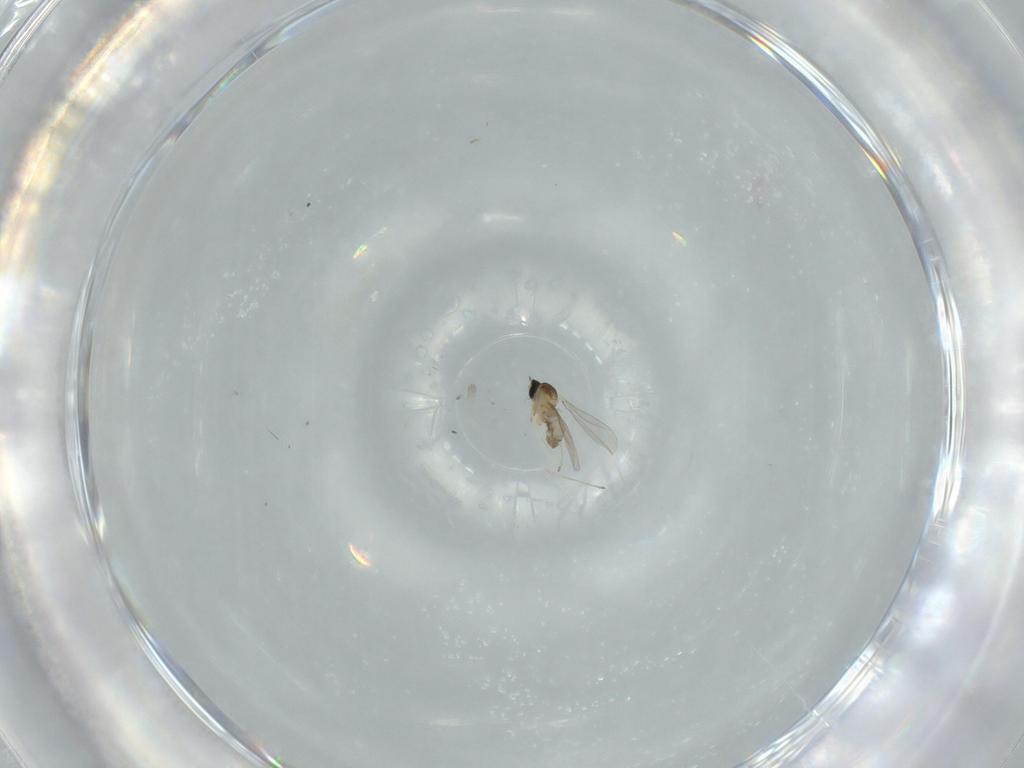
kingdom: Animalia
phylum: Arthropoda
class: Insecta
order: Diptera
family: Sciaridae
